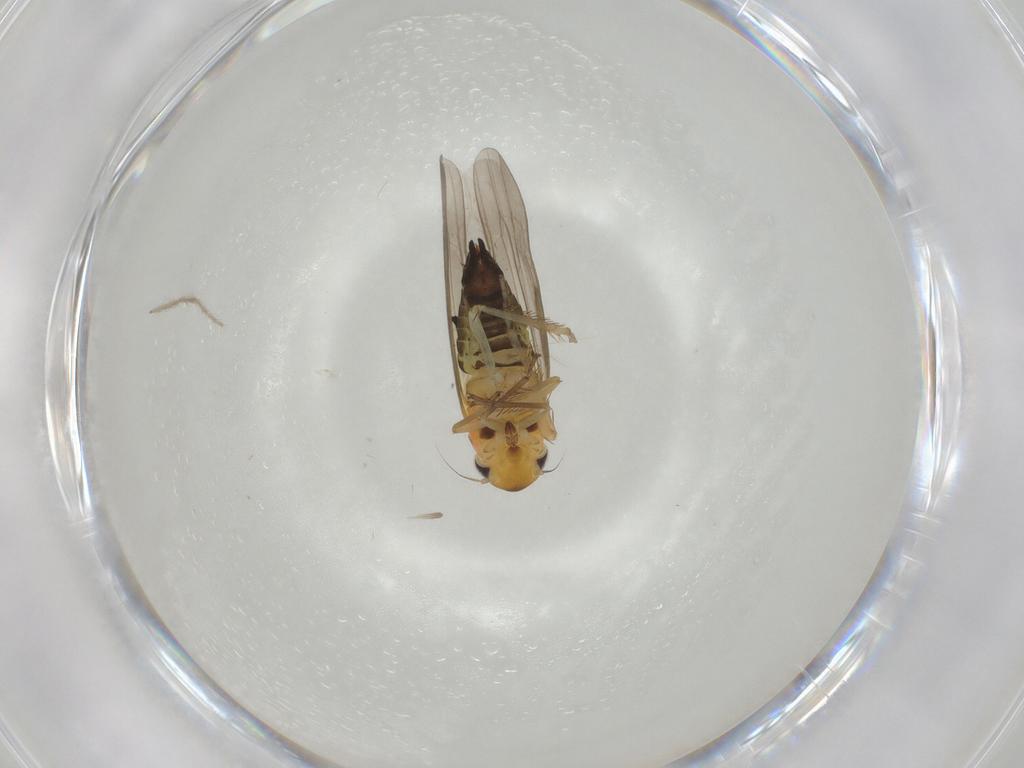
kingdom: Animalia
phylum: Arthropoda
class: Insecta
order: Hemiptera
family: Cicadellidae
